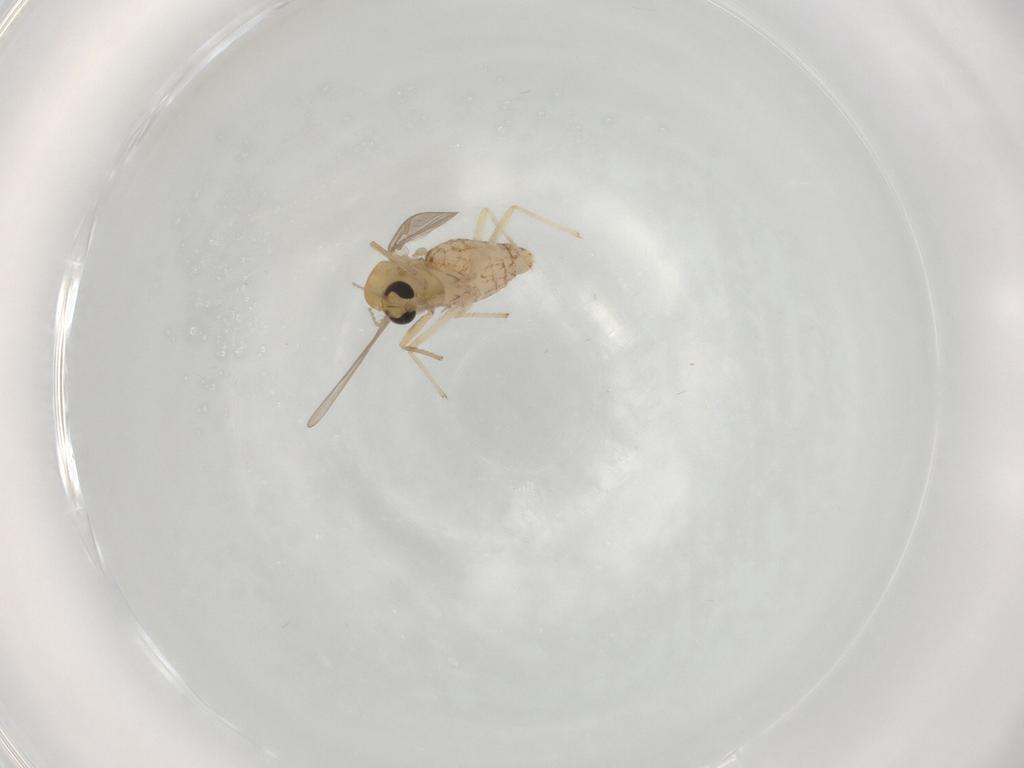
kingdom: Animalia
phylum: Arthropoda
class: Insecta
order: Diptera
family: Chironomidae
